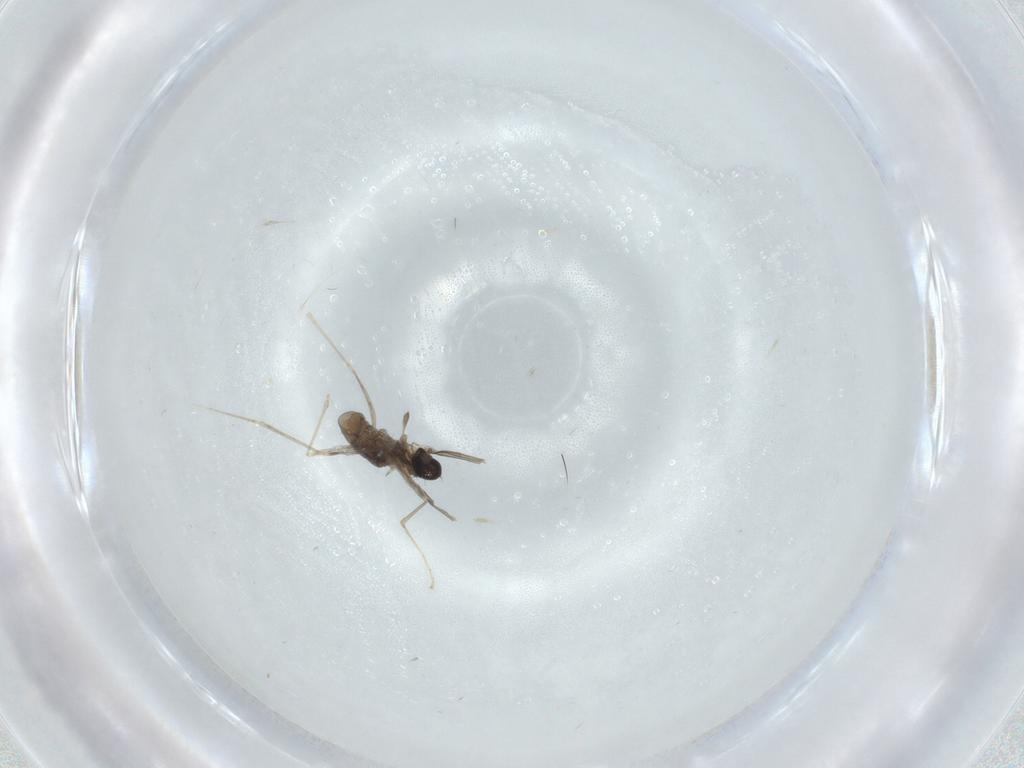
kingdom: Animalia
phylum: Arthropoda
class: Insecta
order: Diptera
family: Cecidomyiidae
